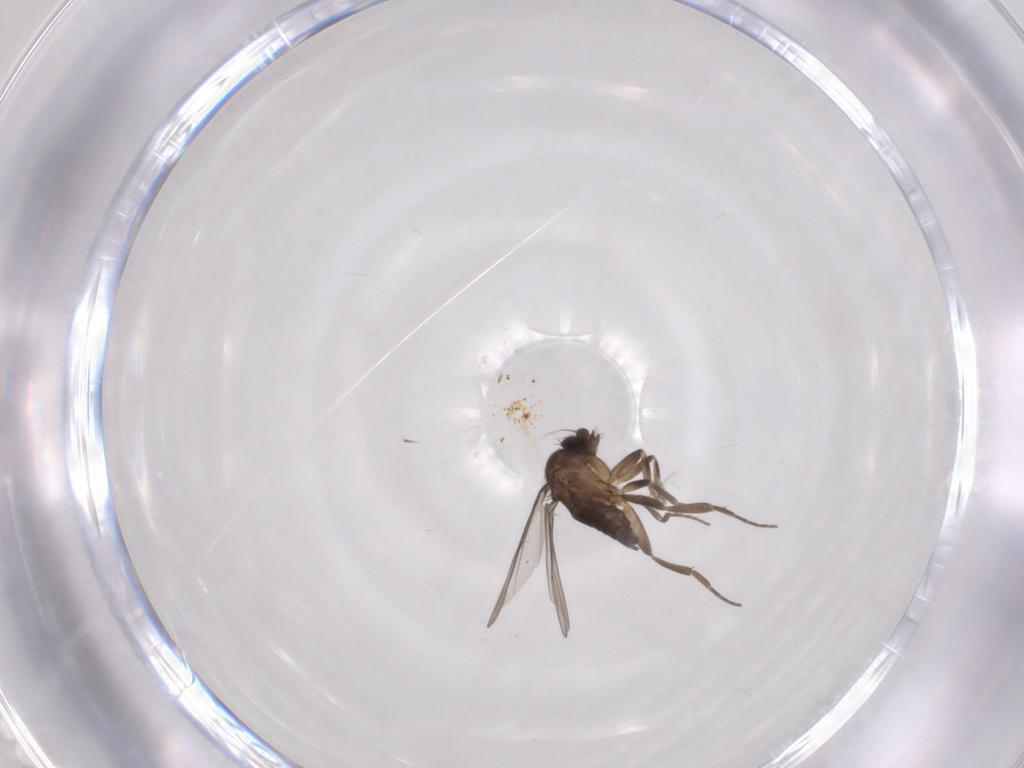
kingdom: Animalia
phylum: Arthropoda
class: Insecta
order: Diptera
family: Phoridae
